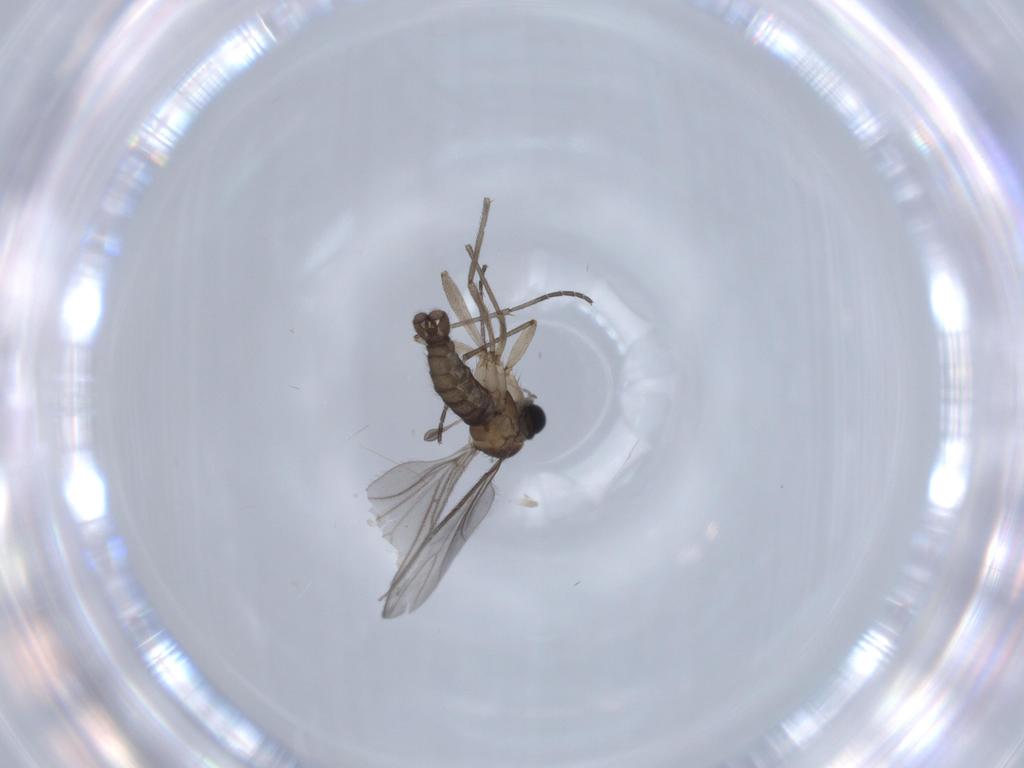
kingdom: Animalia
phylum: Arthropoda
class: Insecta
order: Diptera
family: Sciaridae
